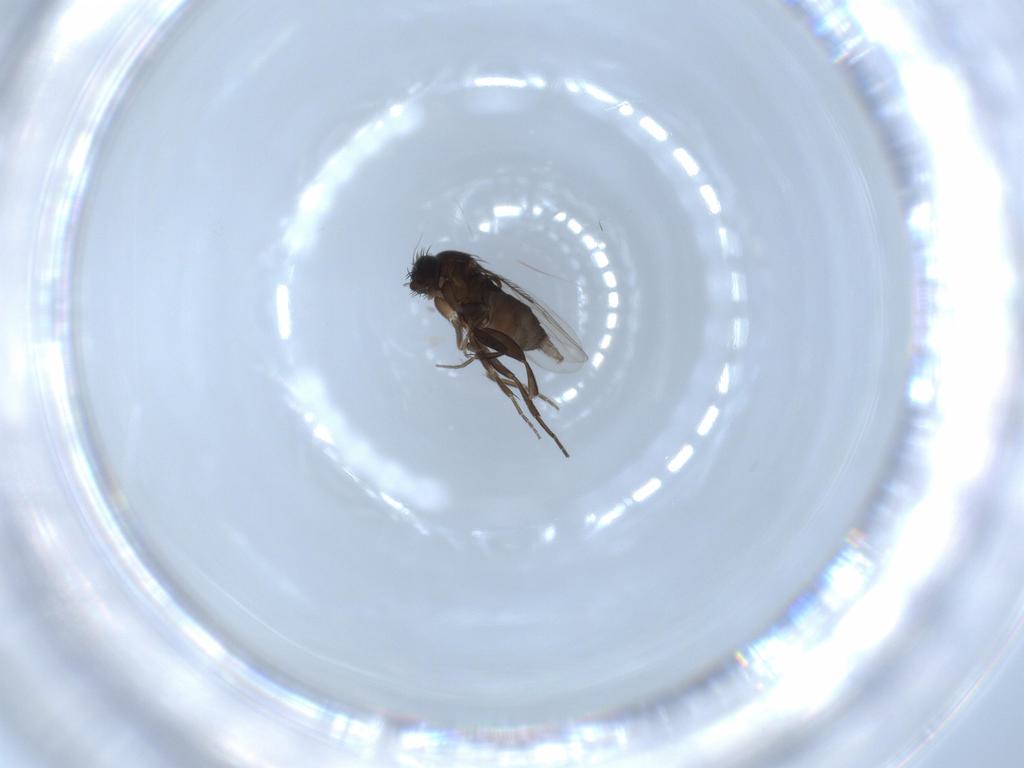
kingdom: Animalia
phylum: Arthropoda
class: Insecta
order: Diptera
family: Phoridae
